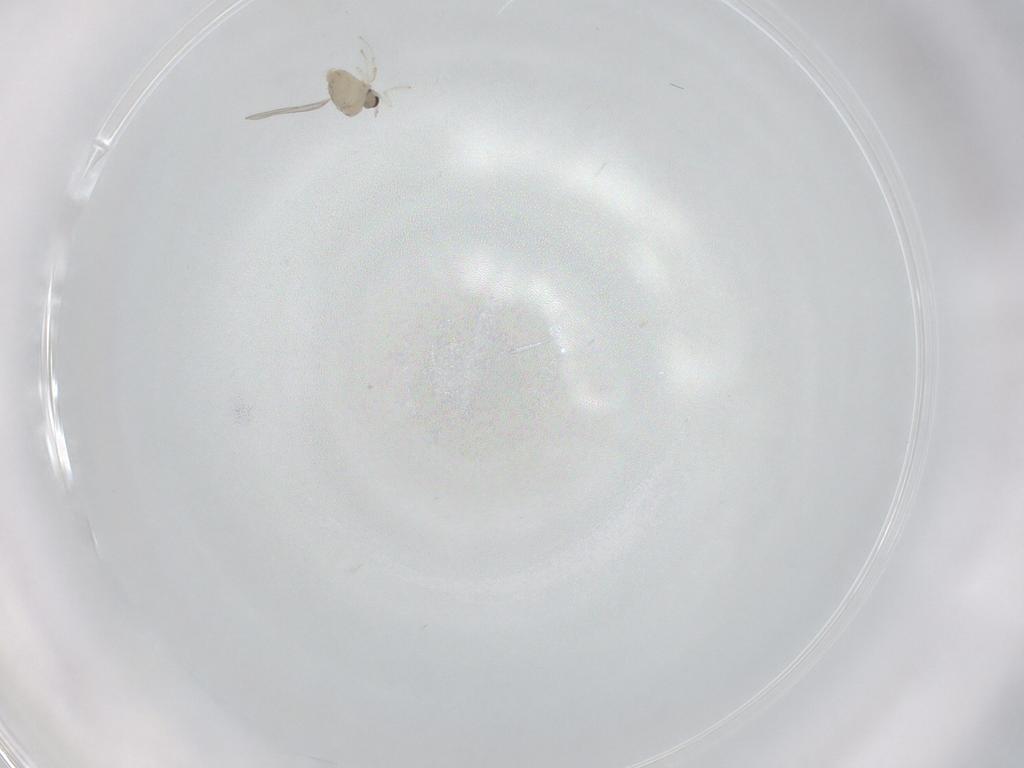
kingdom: Animalia
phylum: Arthropoda
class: Insecta
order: Diptera
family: Cecidomyiidae
